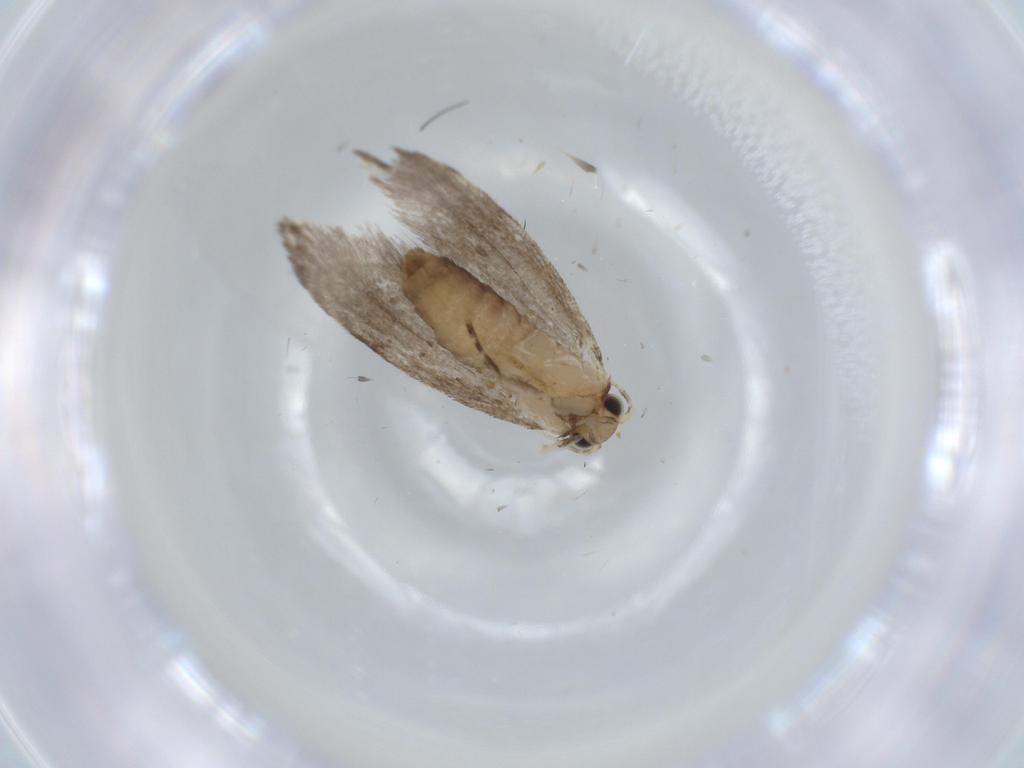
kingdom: Animalia
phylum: Arthropoda
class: Insecta
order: Lepidoptera
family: Tineidae
